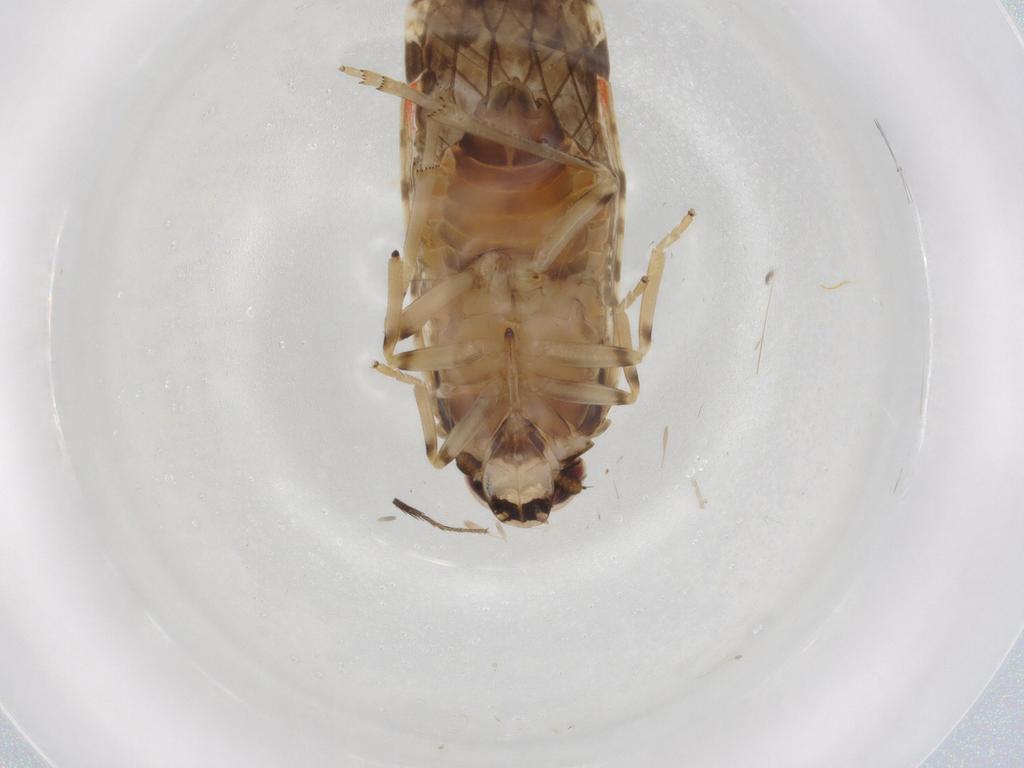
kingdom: Animalia
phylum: Arthropoda
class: Insecta
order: Hemiptera
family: Cicadellidae
